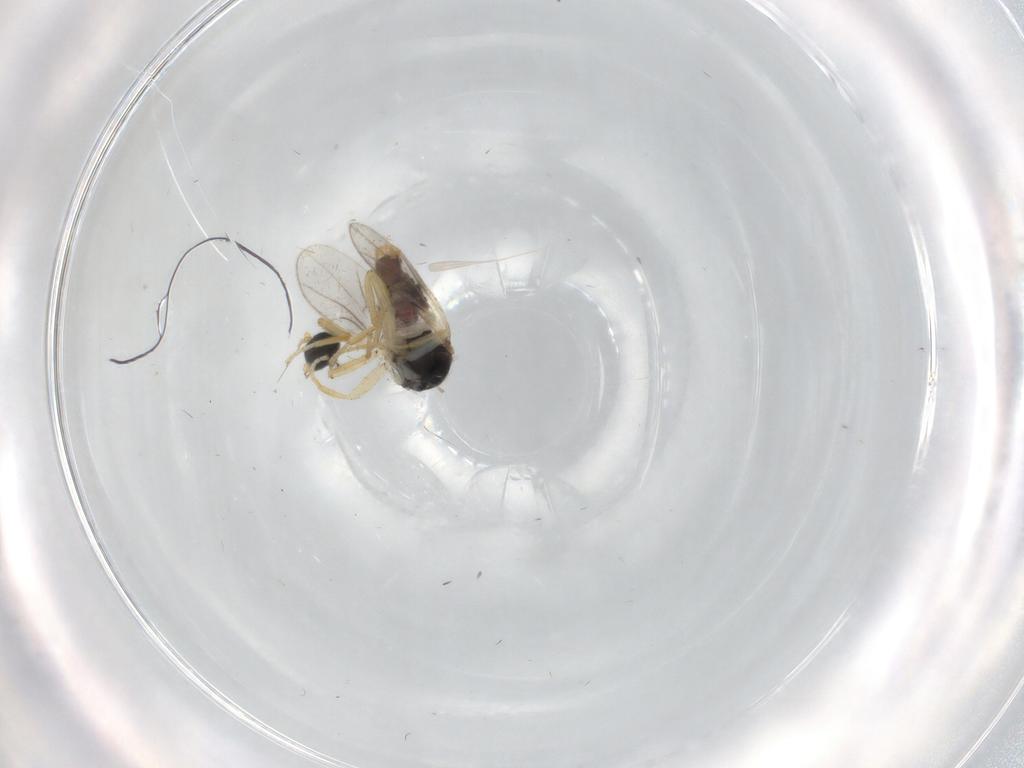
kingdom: Animalia
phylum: Arthropoda
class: Insecta
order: Diptera
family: Hybotidae
